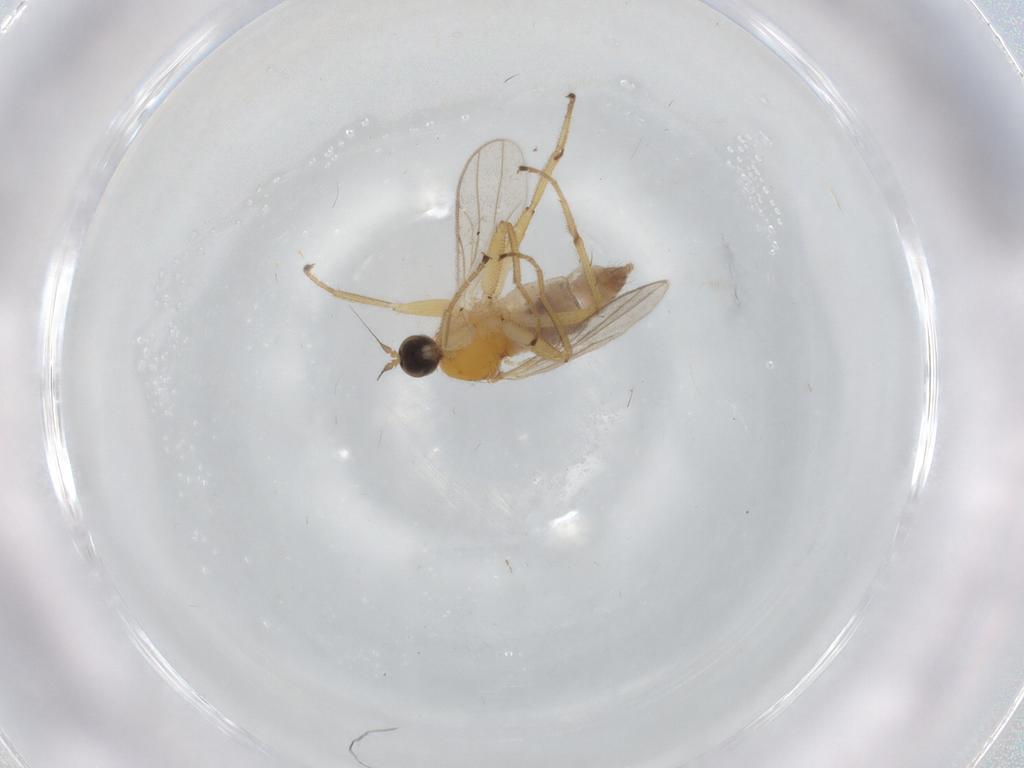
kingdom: Animalia
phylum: Arthropoda
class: Insecta
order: Diptera
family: Hybotidae
